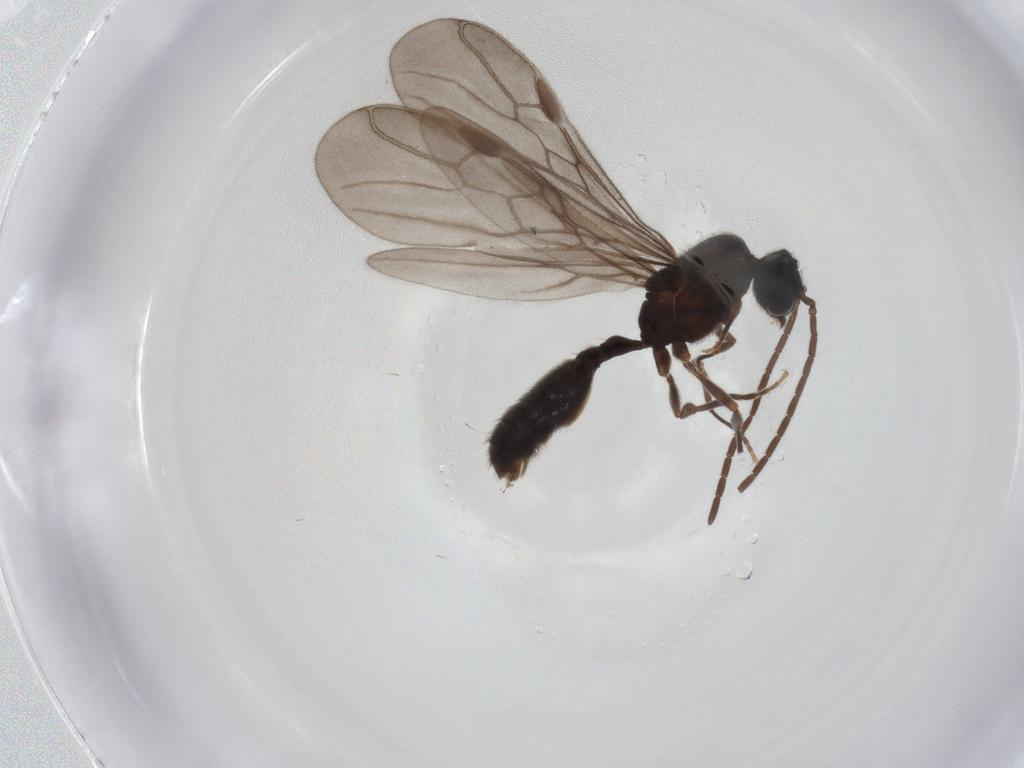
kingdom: Animalia
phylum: Arthropoda
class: Insecta
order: Hymenoptera
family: Formicidae
